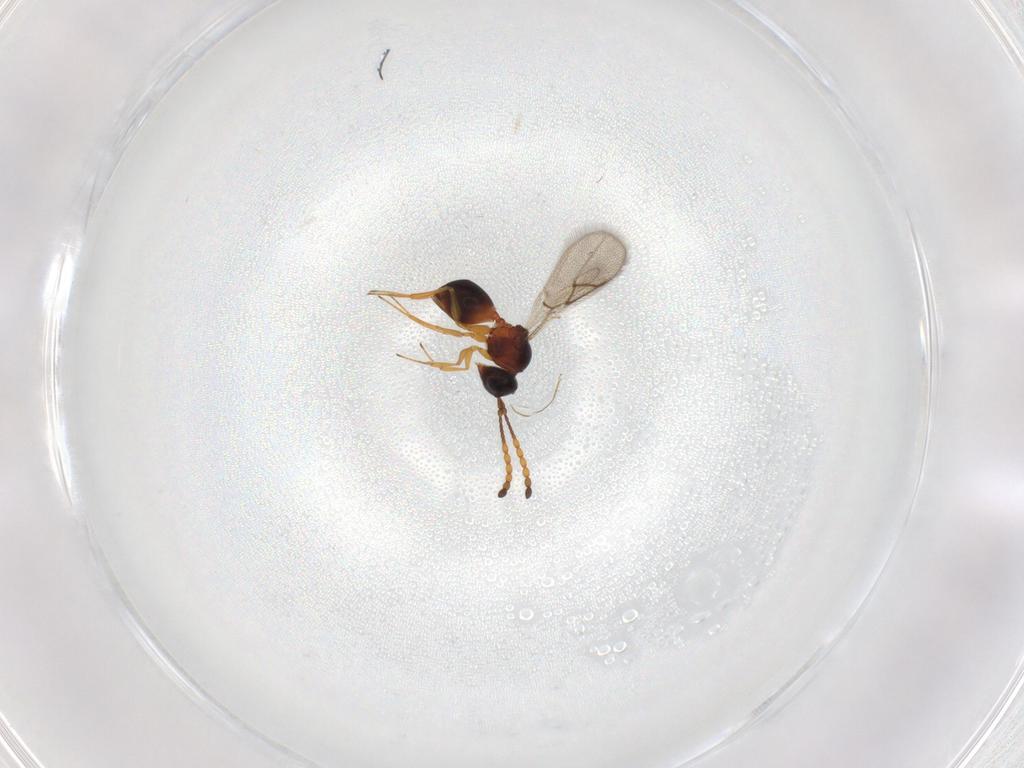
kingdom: Animalia
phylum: Arthropoda
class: Insecta
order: Hymenoptera
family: Figitidae
